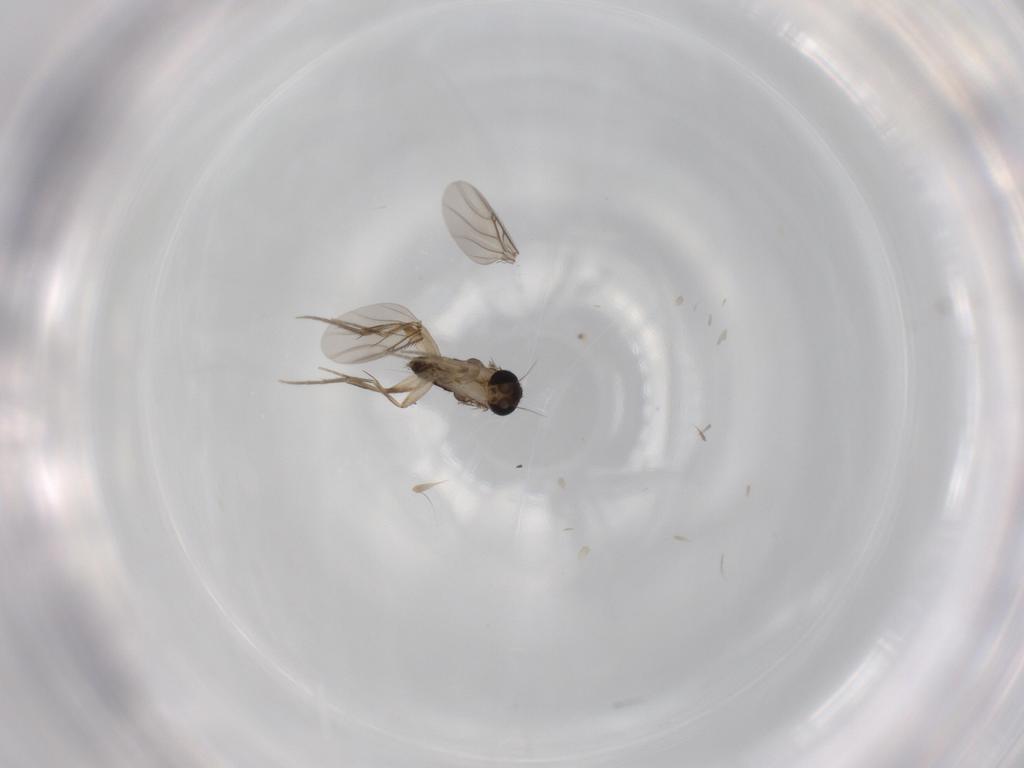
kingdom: Animalia
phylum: Arthropoda
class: Insecta
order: Diptera
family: Phoridae
